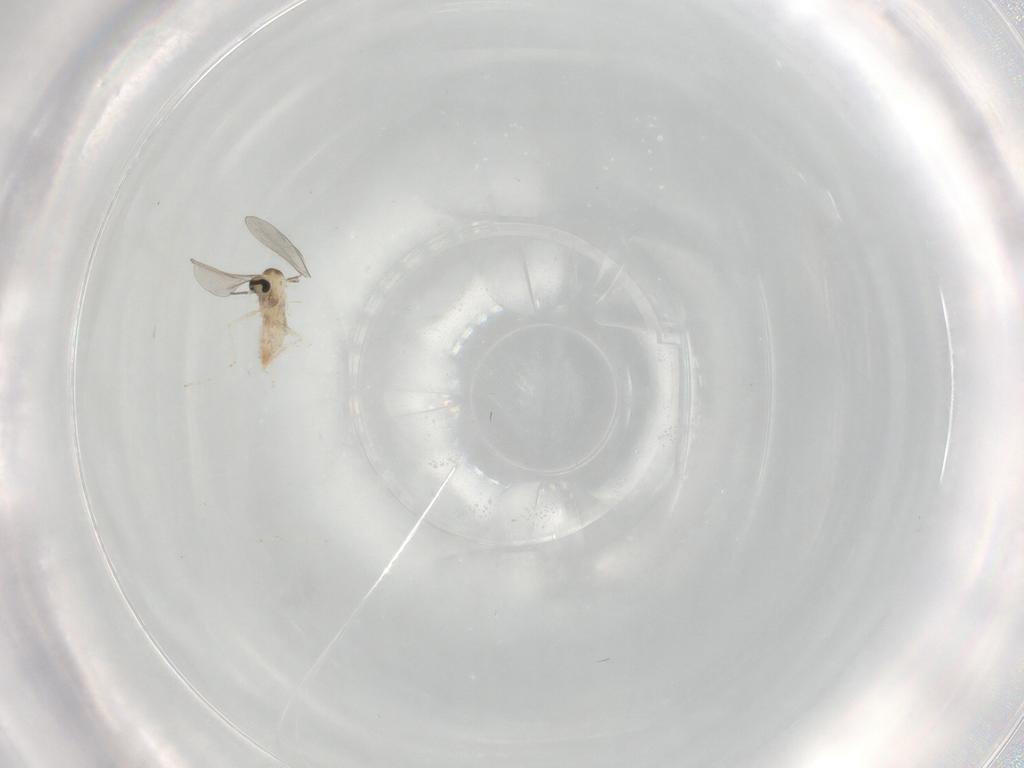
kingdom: Animalia
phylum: Arthropoda
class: Insecta
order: Diptera
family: Cecidomyiidae
